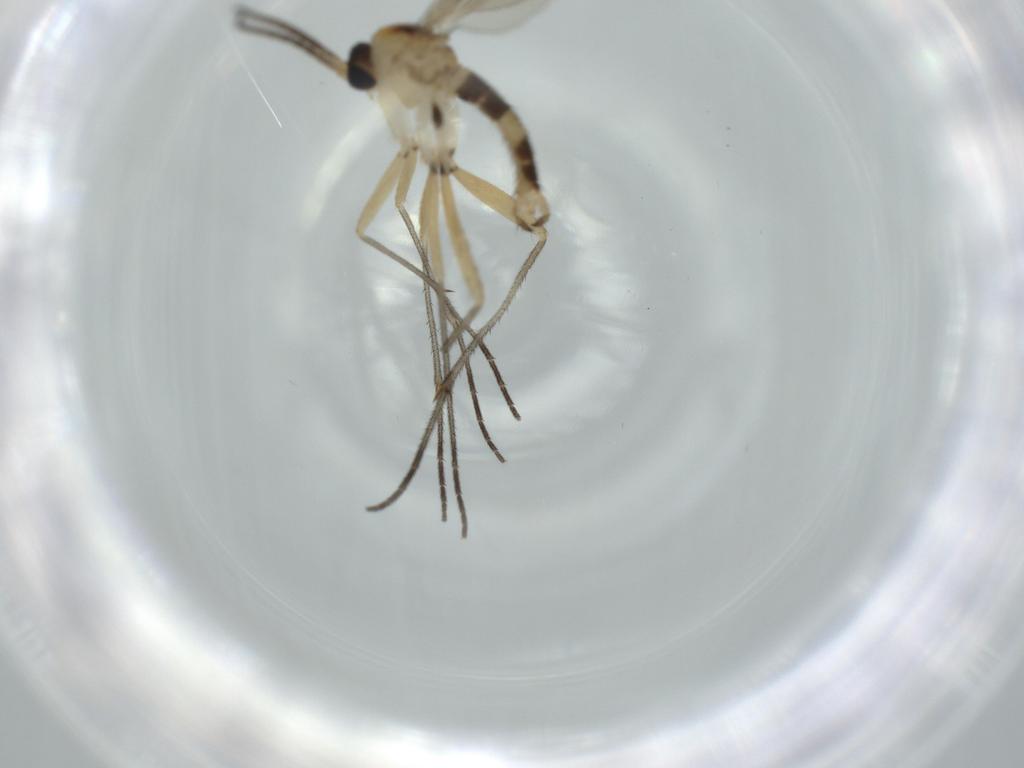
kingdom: Animalia
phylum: Arthropoda
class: Insecta
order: Diptera
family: Sciaridae
